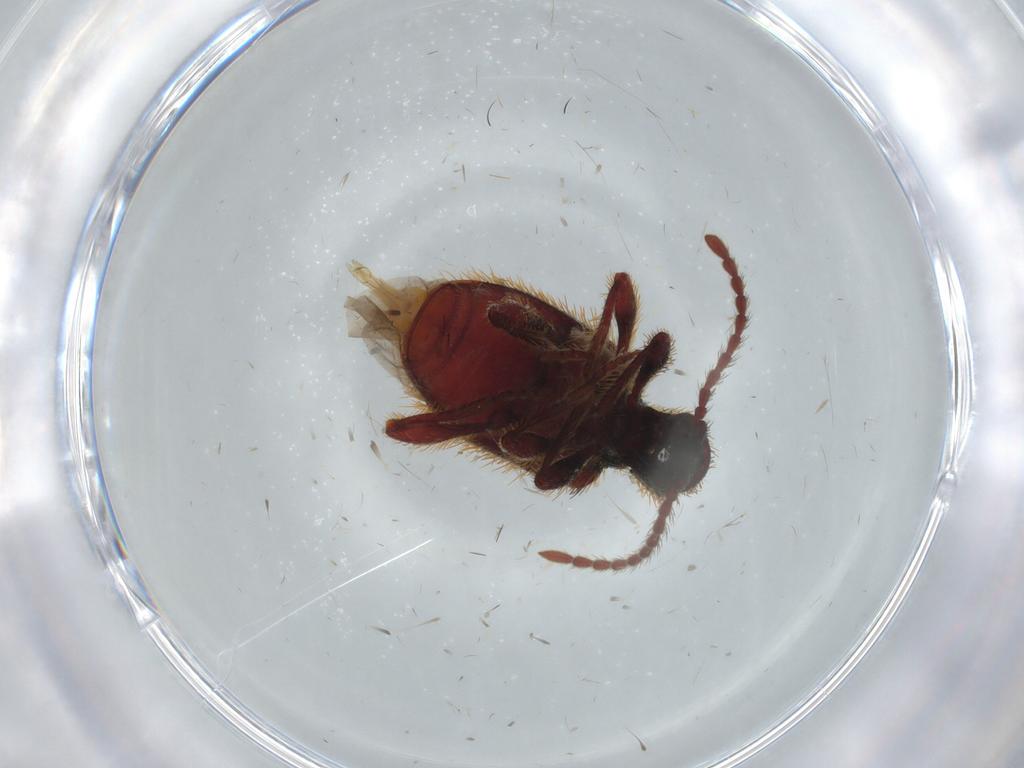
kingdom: Animalia
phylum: Arthropoda
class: Insecta
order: Coleoptera
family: Ptinidae
